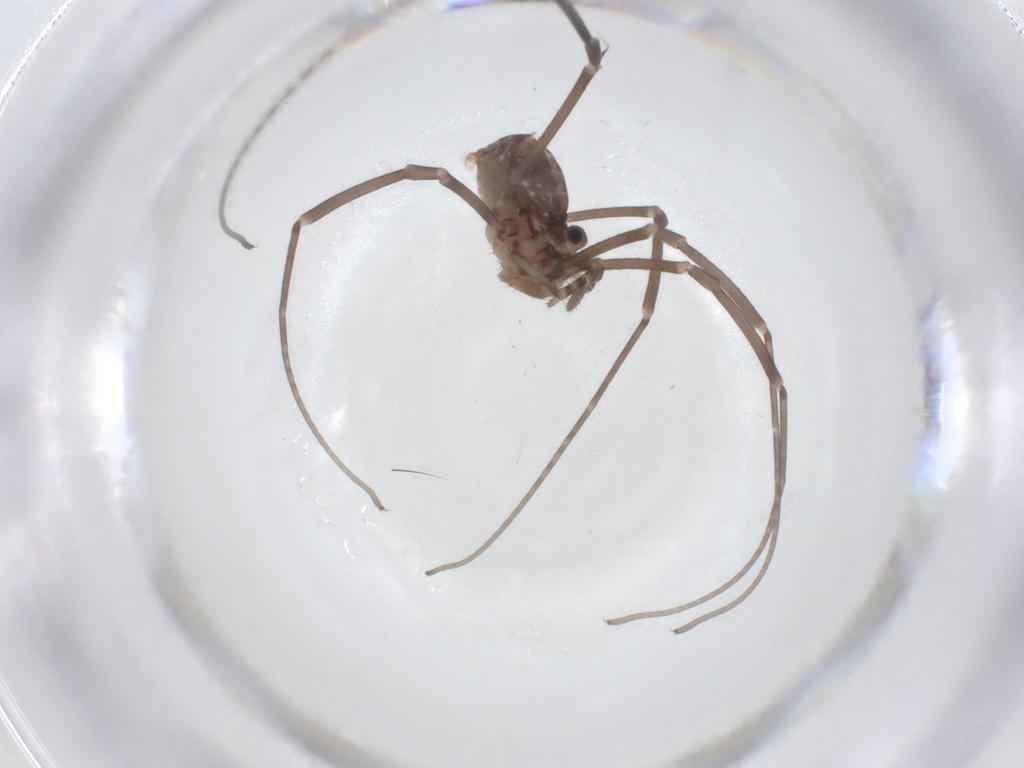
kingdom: Animalia
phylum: Arthropoda
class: Arachnida
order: Opiliones
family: Sclerosomatidae
